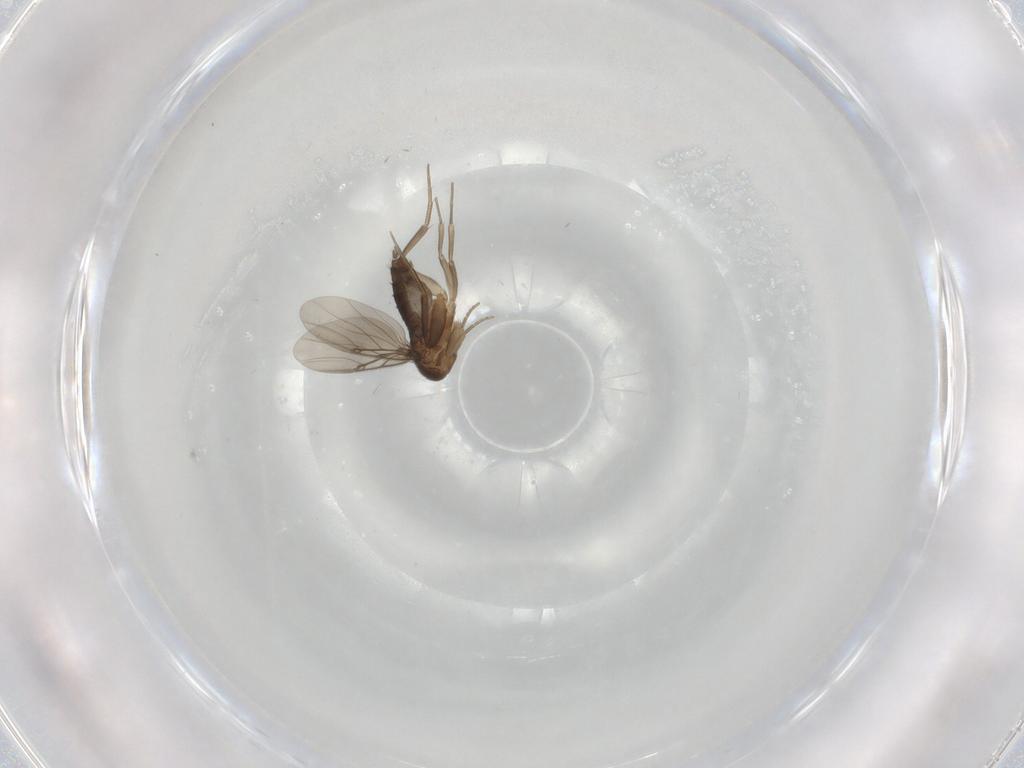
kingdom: Animalia
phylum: Arthropoda
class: Insecta
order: Diptera
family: Phoridae
